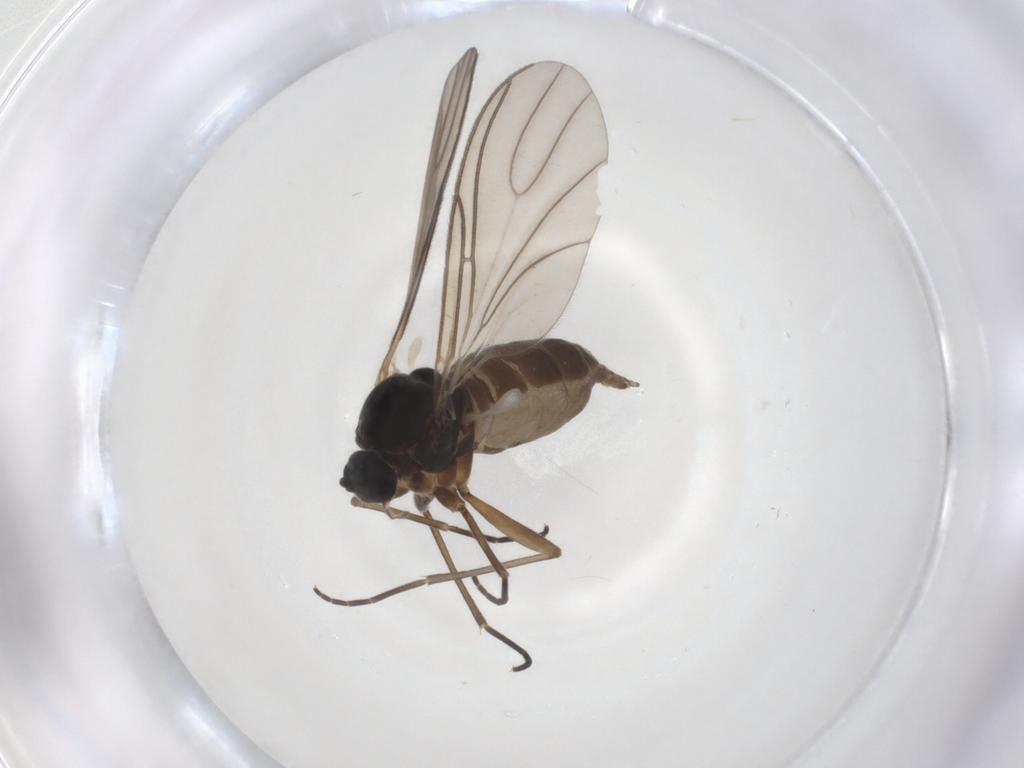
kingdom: Animalia
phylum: Arthropoda
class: Insecta
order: Diptera
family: Sciaridae
